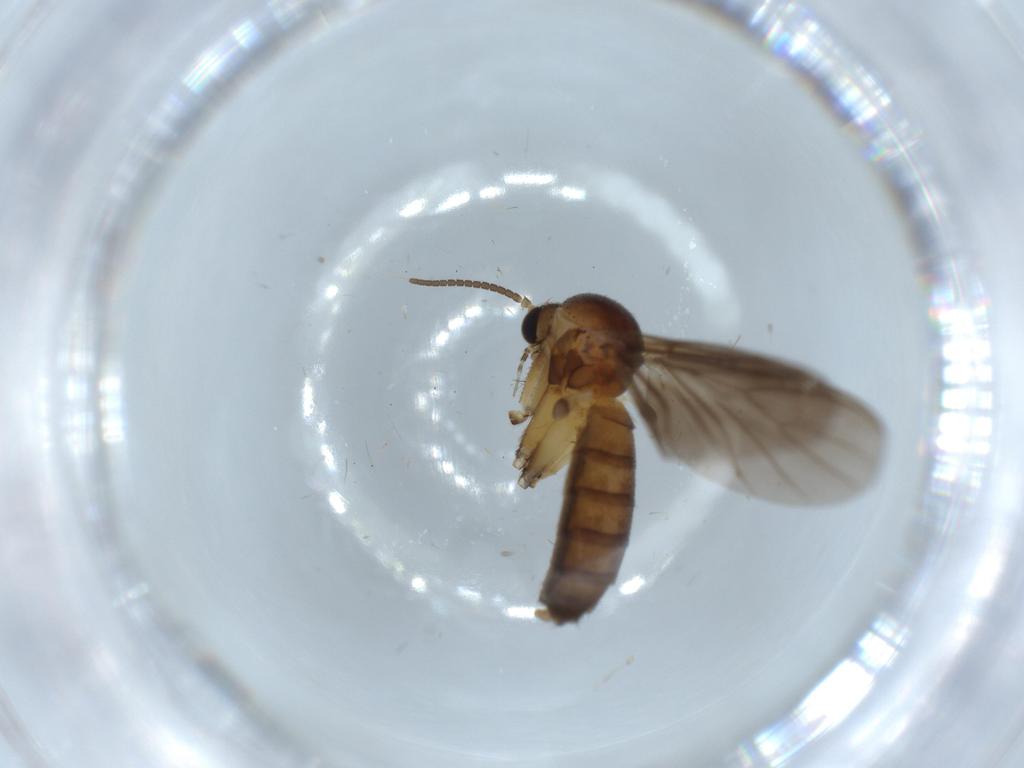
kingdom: Animalia
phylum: Arthropoda
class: Insecta
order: Diptera
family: Mycetophilidae
